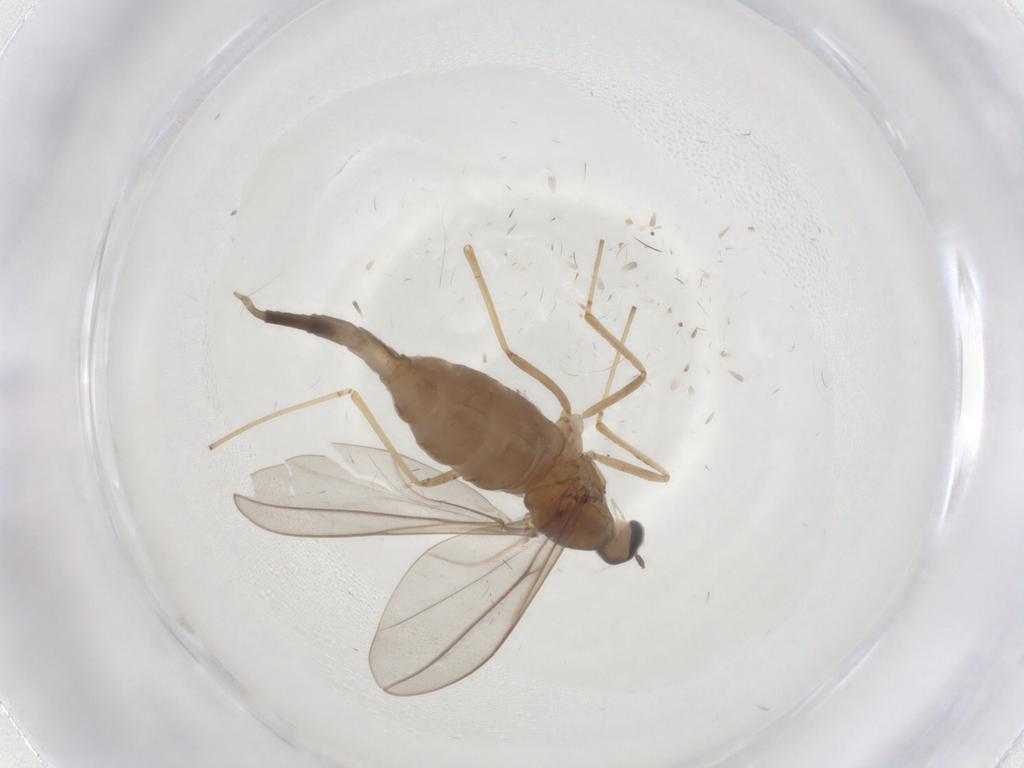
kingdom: Animalia
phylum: Arthropoda
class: Insecta
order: Diptera
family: Cecidomyiidae
